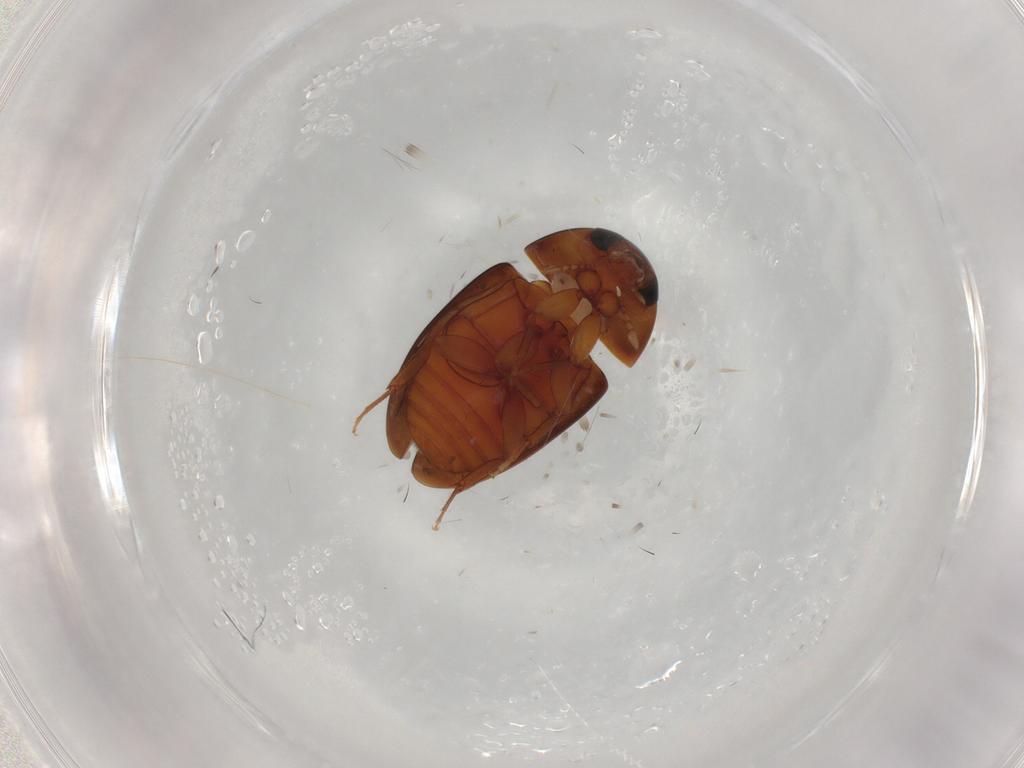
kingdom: Animalia
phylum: Arthropoda
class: Insecta
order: Coleoptera
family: Phalacridae
